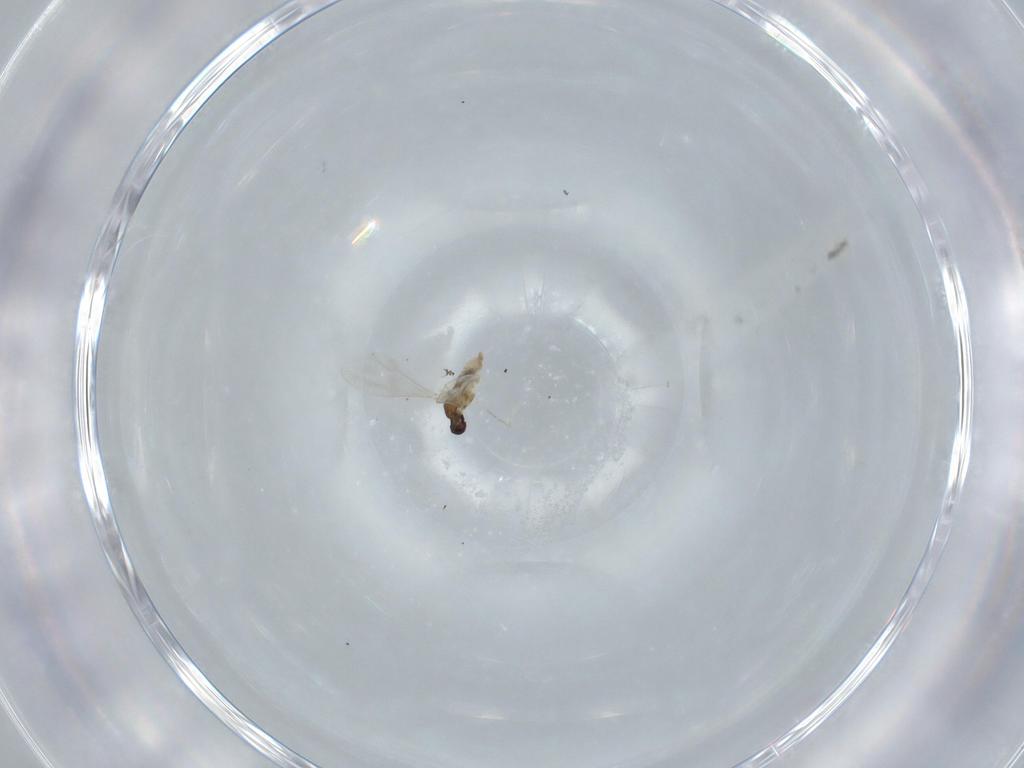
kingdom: Animalia
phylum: Arthropoda
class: Insecta
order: Diptera
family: Cecidomyiidae
